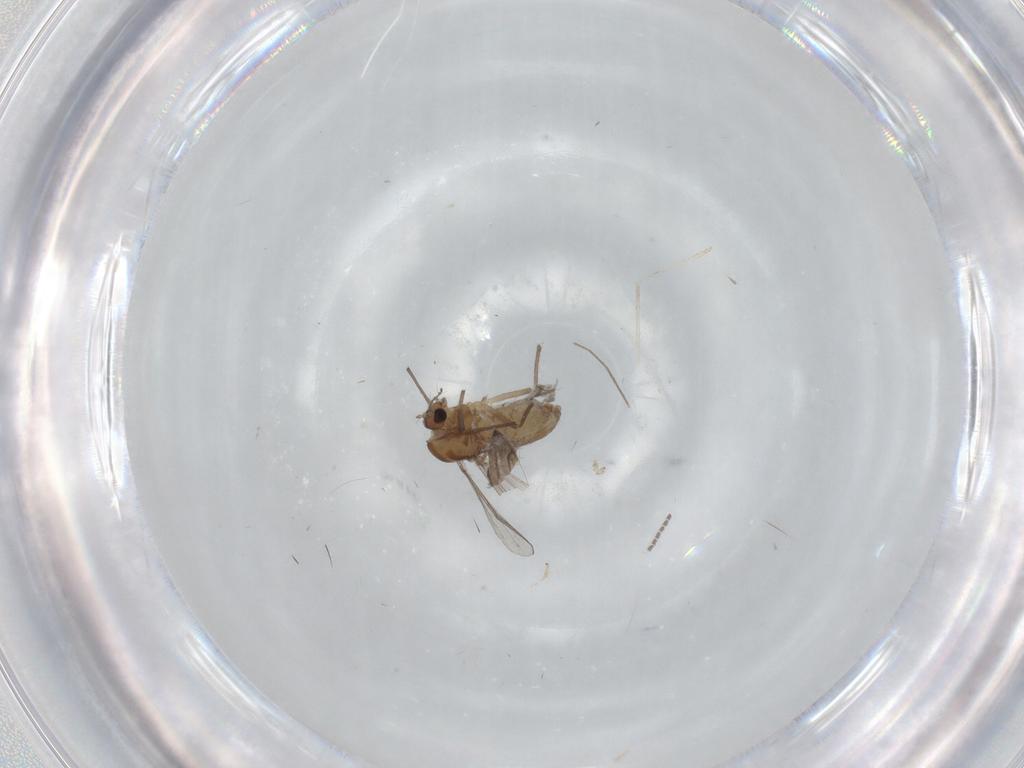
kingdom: Animalia
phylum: Arthropoda
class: Insecta
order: Diptera
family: Chironomidae
